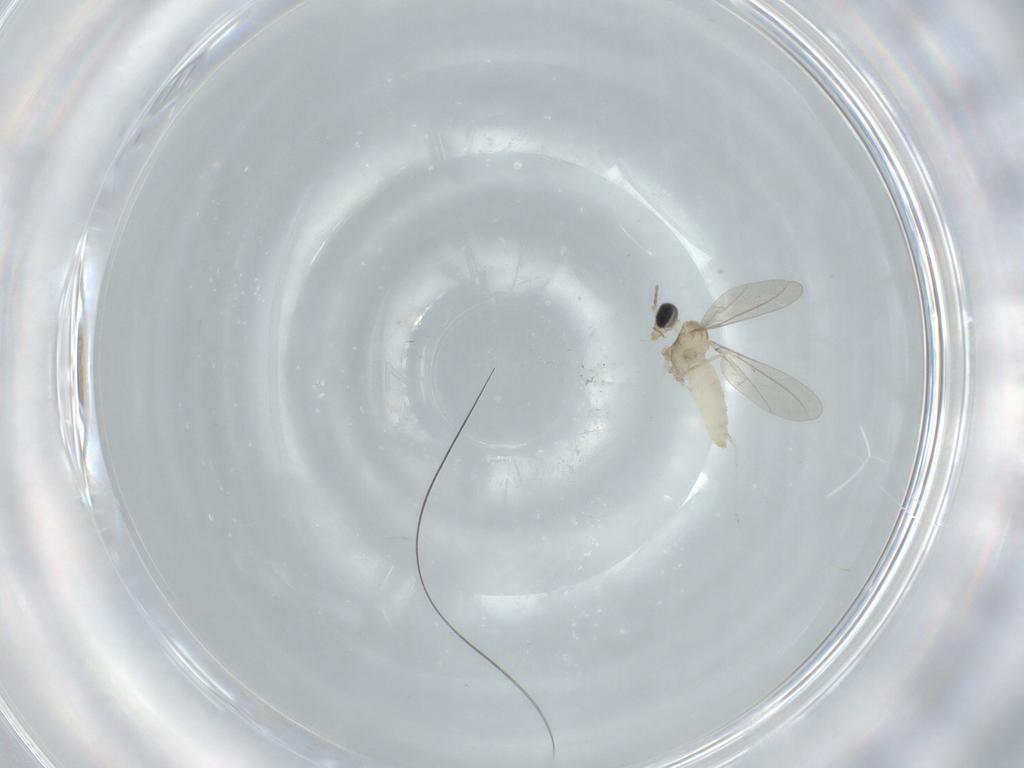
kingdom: Animalia
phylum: Arthropoda
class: Insecta
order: Diptera
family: Cecidomyiidae
